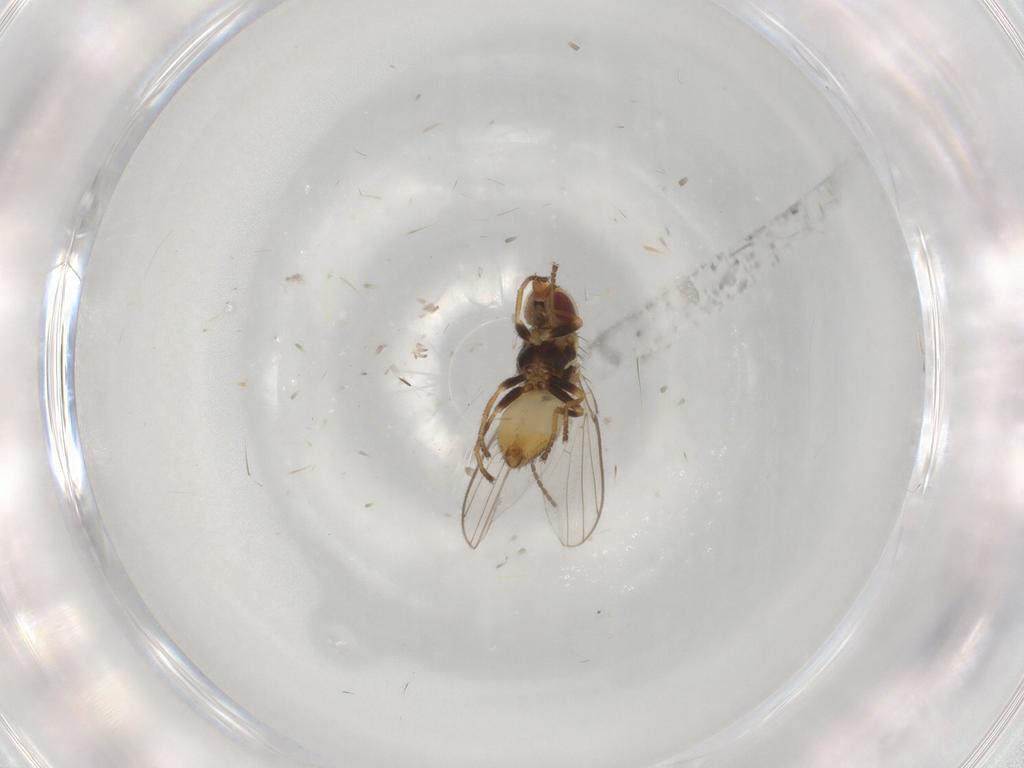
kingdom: Animalia
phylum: Arthropoda
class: Insecta
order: Diptera
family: Chloropidae
